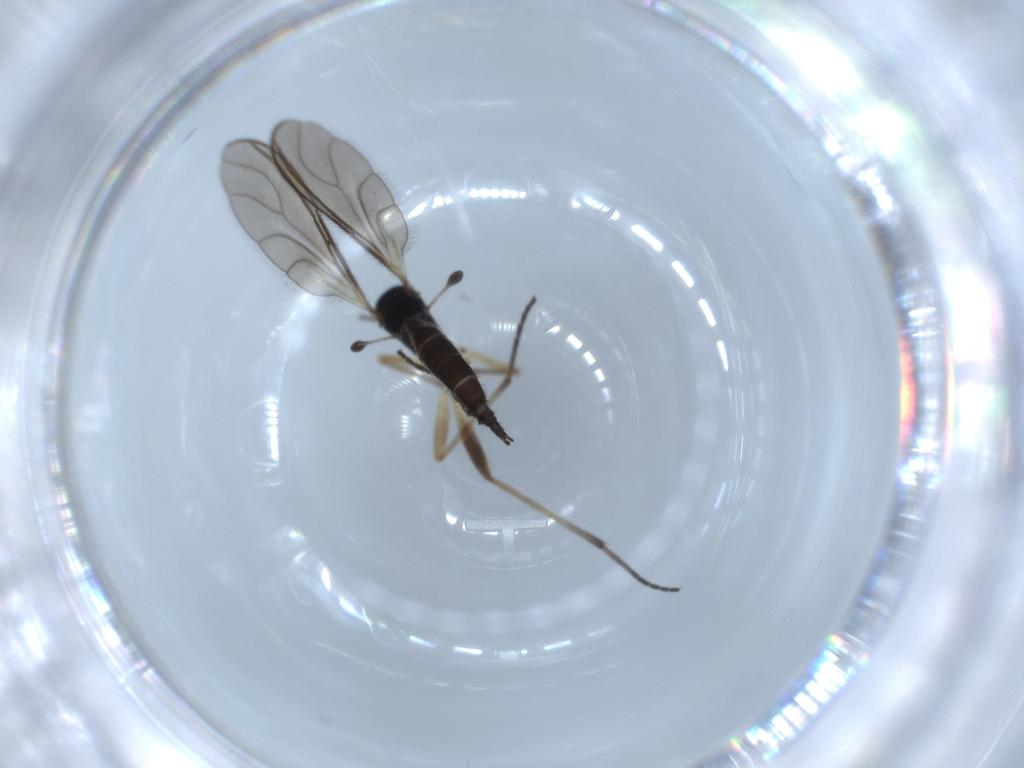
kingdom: Animalia
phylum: Arthropoda
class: Insecta
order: Diptera
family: Sciaridae
